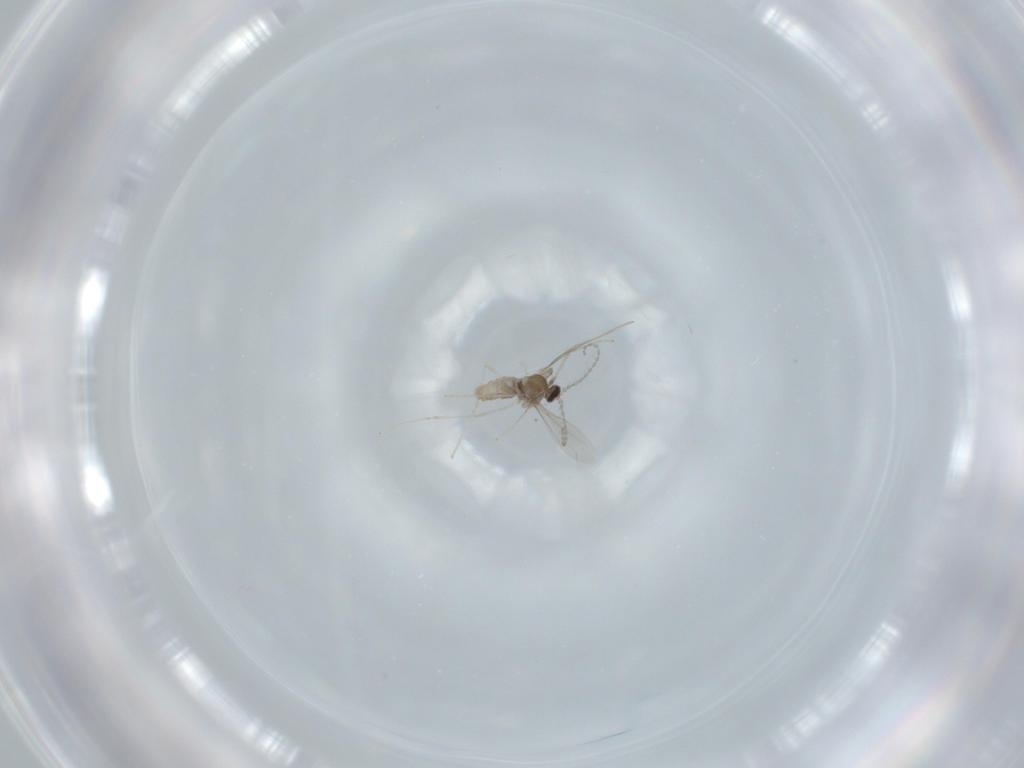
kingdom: Animalia
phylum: Arthropoda
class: Insecta
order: Diptera
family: Cecidomyiidae
